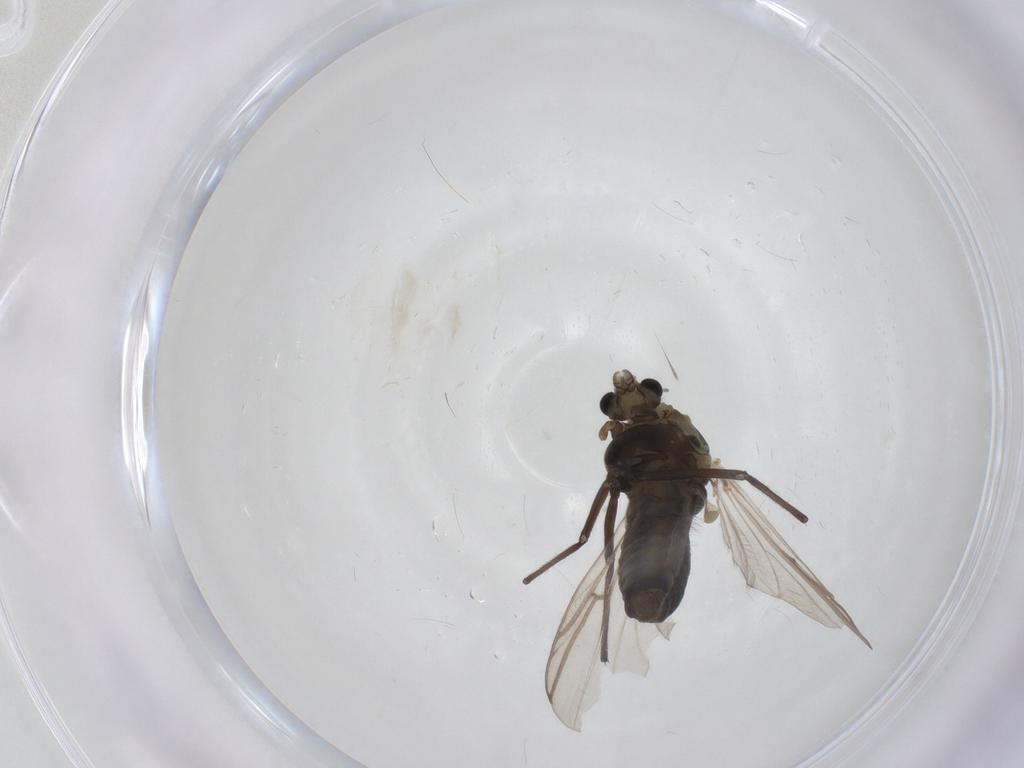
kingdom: Animalia
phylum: Arthropoda
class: Insecta
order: Diptera
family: Chironomidae
